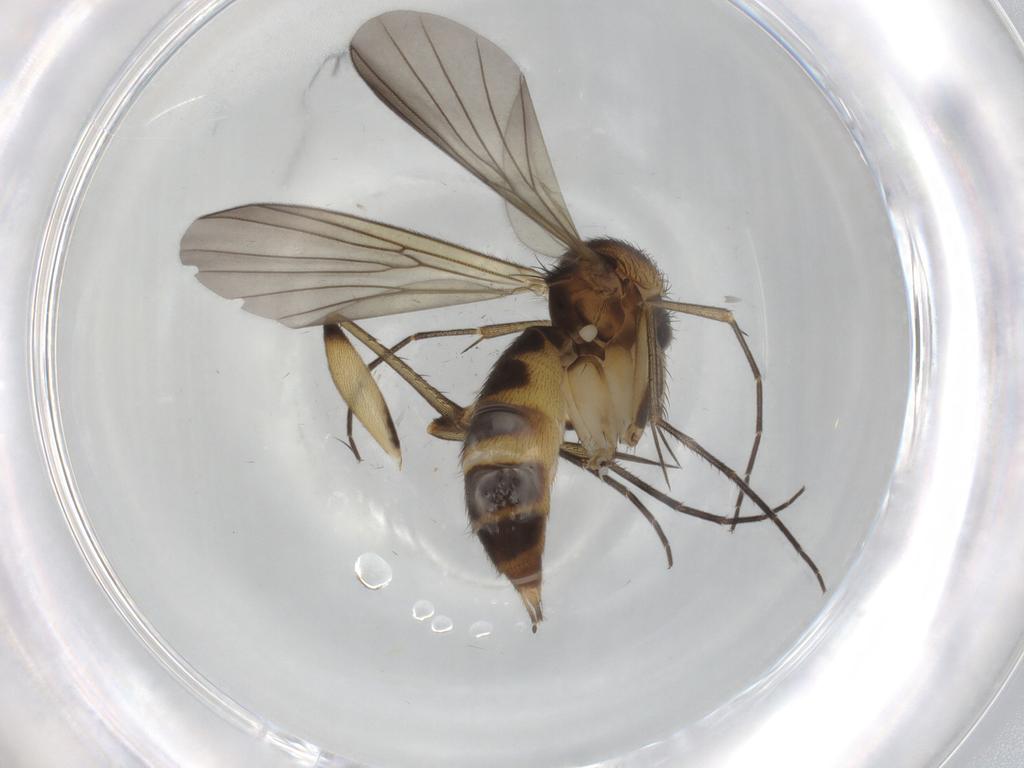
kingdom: Animalia
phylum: Arthropoda
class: Insecta
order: Diptera
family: Mycetophilidae
